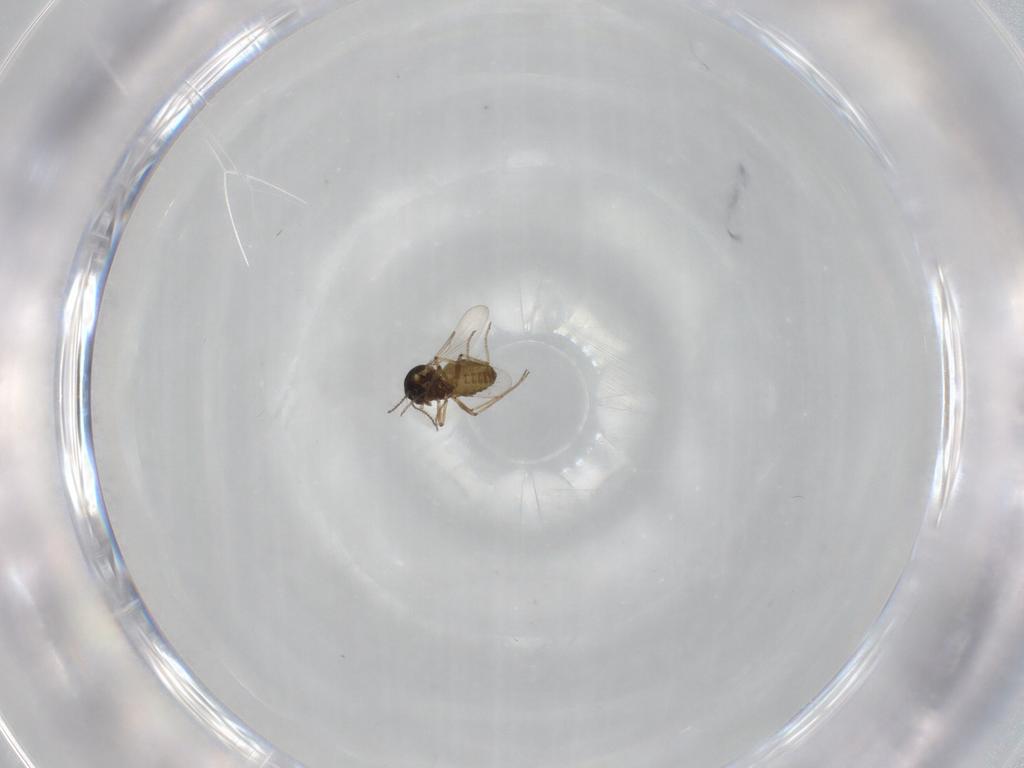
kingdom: Animalia
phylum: Arthropoda
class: Insecta
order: Diptera
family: Ceratopogonidae
